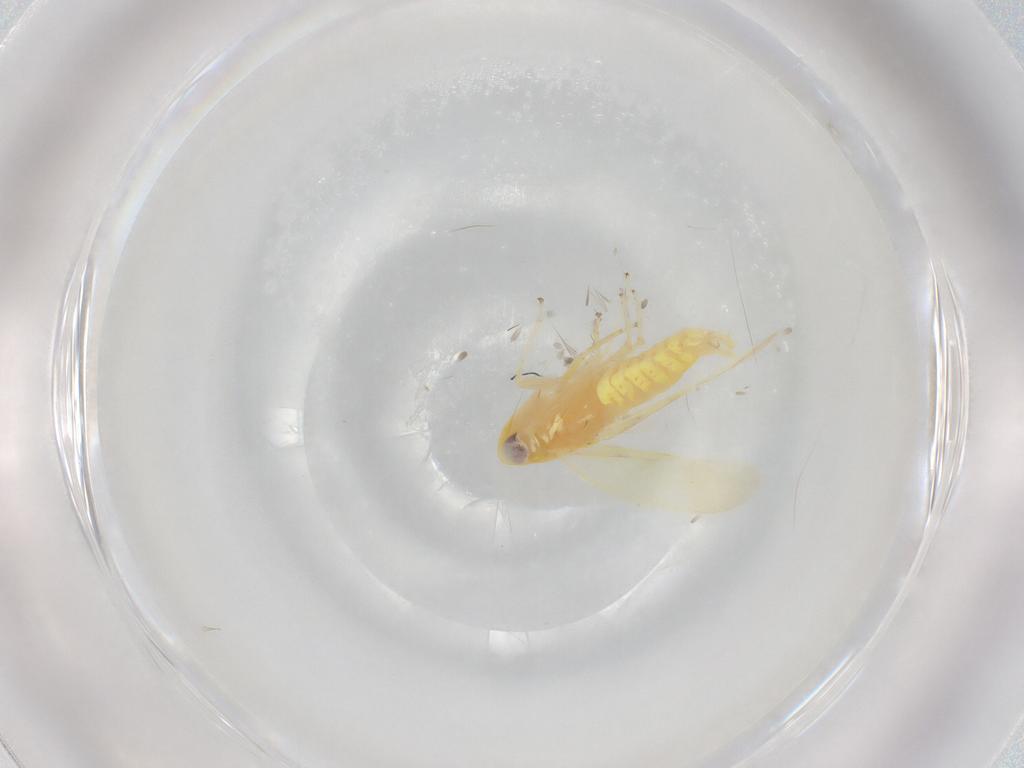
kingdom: Animalia
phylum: Arthropoda
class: Insecta
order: Hemiptera
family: Cicadellidae
